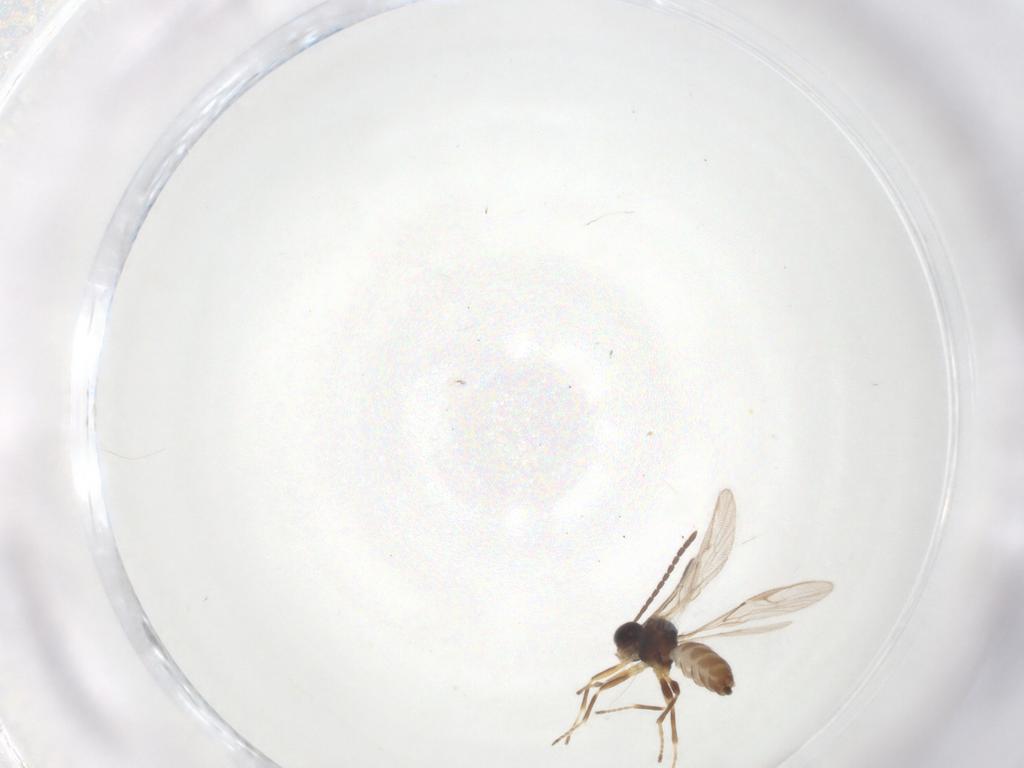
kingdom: Animalia
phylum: Arthropoda
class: Insecta
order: Hymenoptera
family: Braconidae
